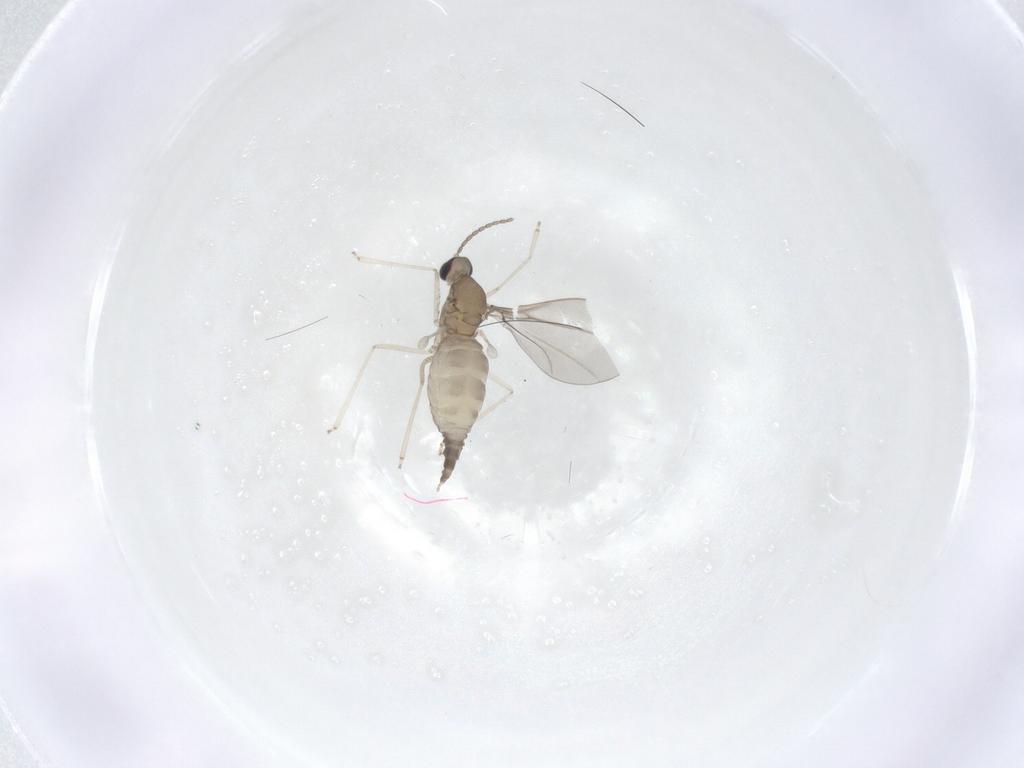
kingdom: Animalia
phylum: Arthropoda
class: Insecta
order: Diptera
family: Cecidomyiidae
